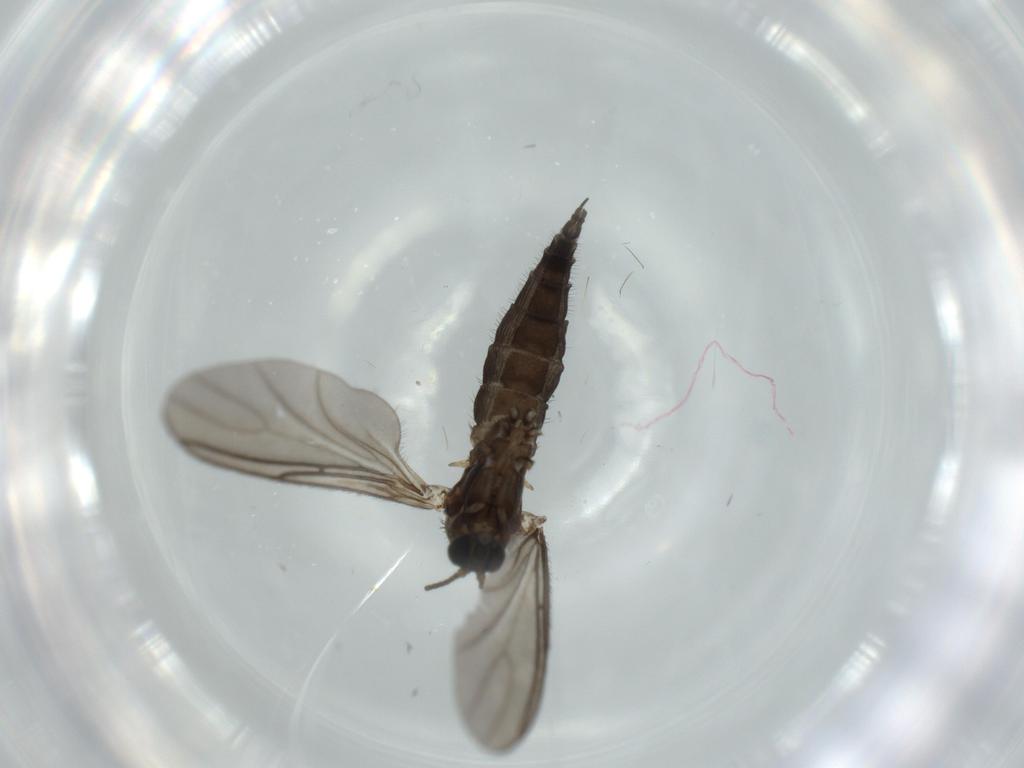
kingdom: Animalia
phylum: Arthropoda
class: Insecta
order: Diptera
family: Sciaridae
